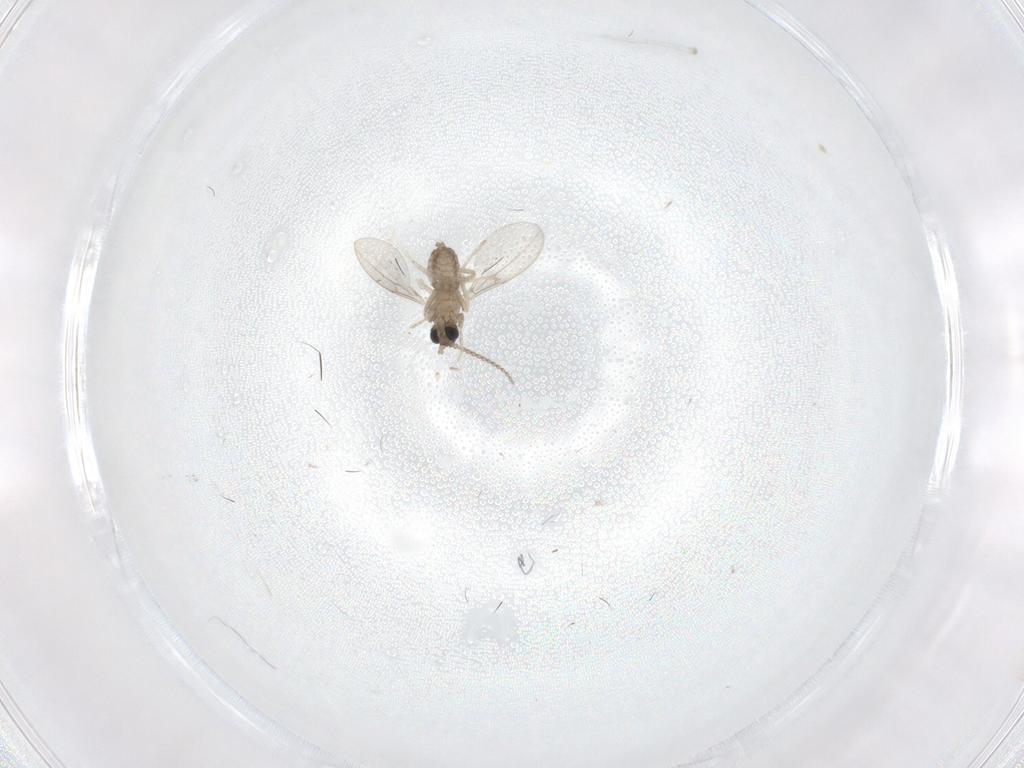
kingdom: Animalia
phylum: Arthropoda
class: Insecta
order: Diptera
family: Cecidomyiidae
